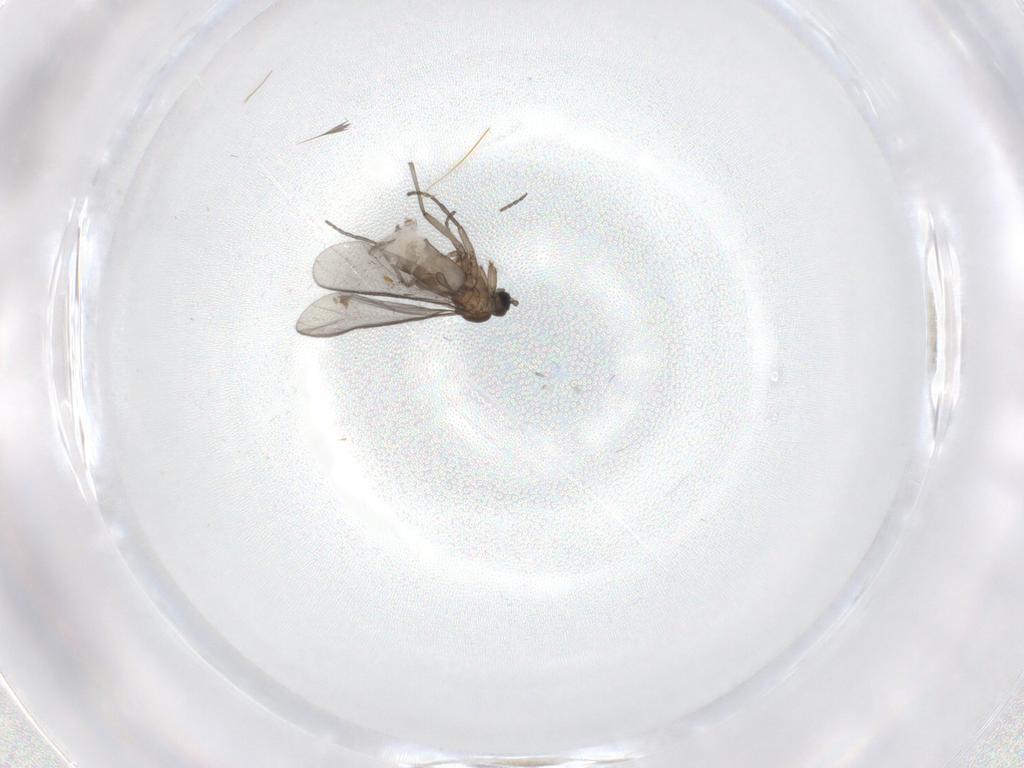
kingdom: Animalia
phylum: Arthropoda
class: Insecta
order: Diptera
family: Sciaridae
